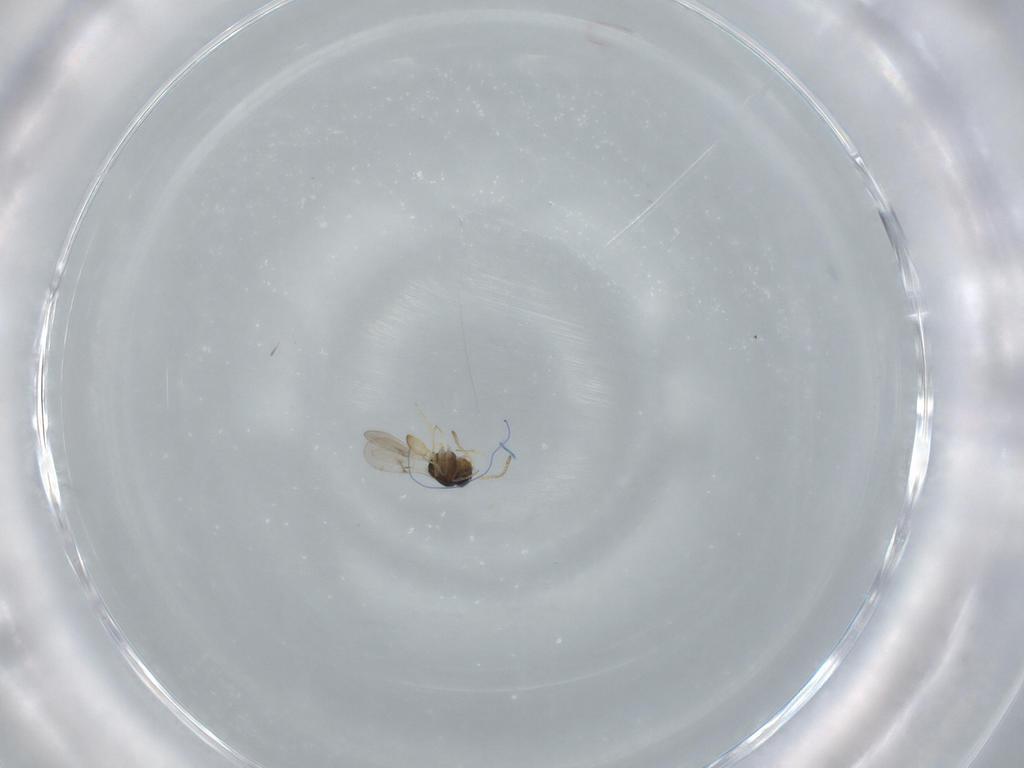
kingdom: Animalia
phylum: Arthropoda
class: Insecta
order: Hymenoptera
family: Scelionidae
